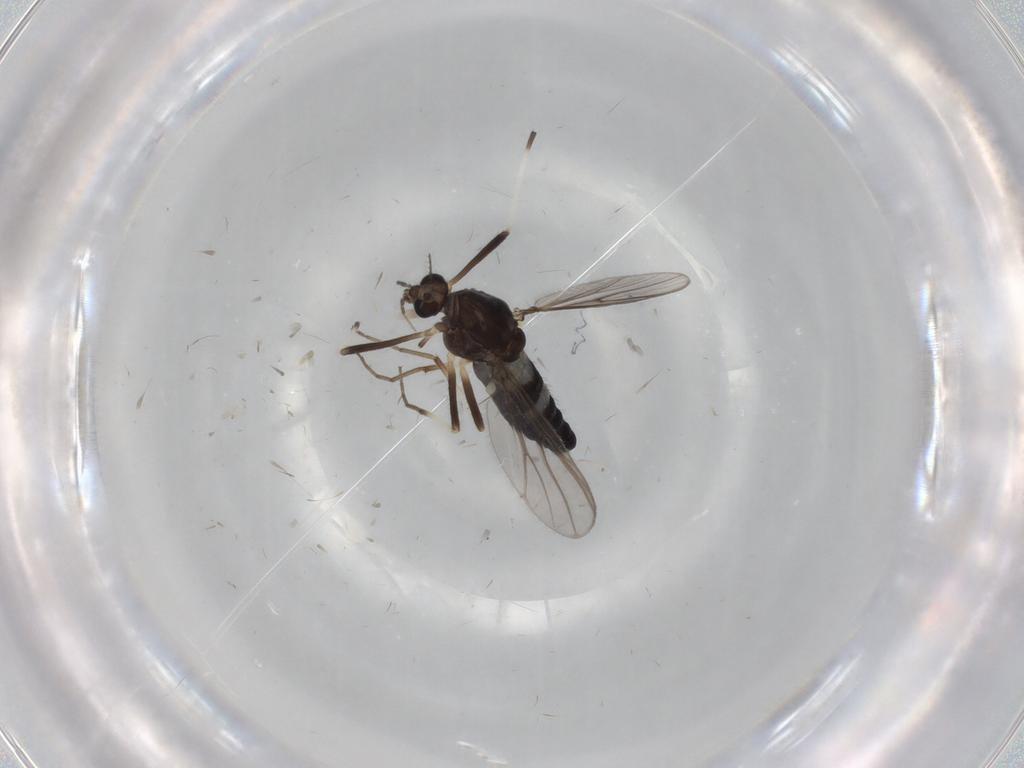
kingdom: Animalia
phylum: Arthropoda
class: Insecta
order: Diptera
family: Chironomidae
